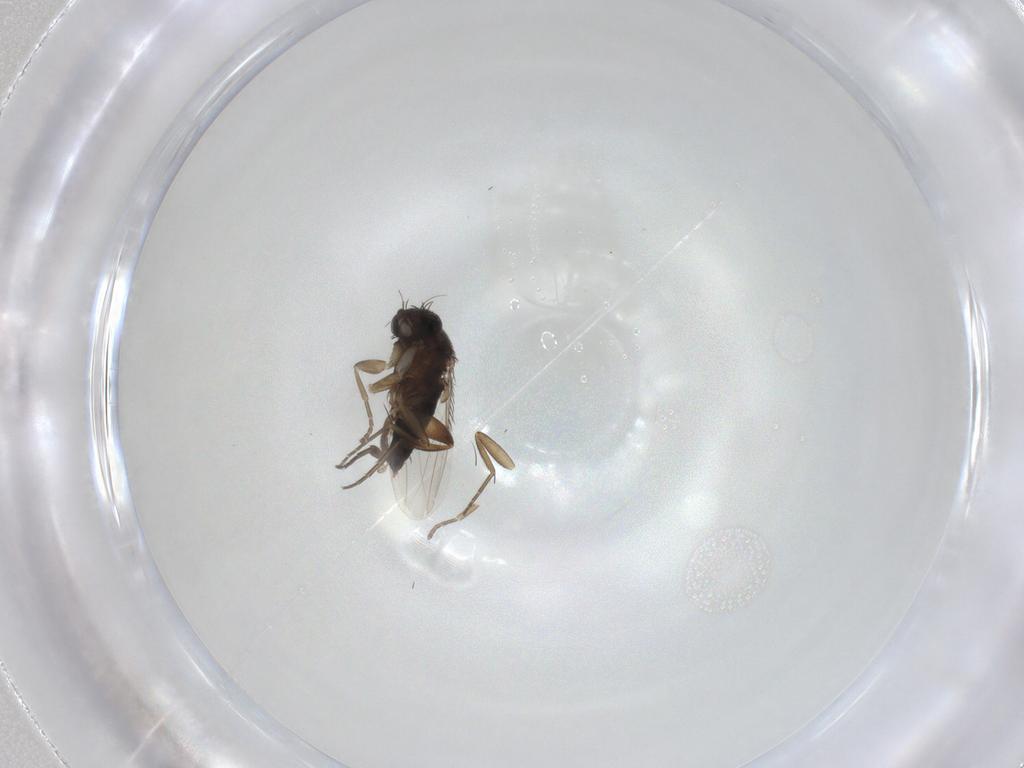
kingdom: Animalia
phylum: Arthropoda
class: Insecta
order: Diptera
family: Phoridae
